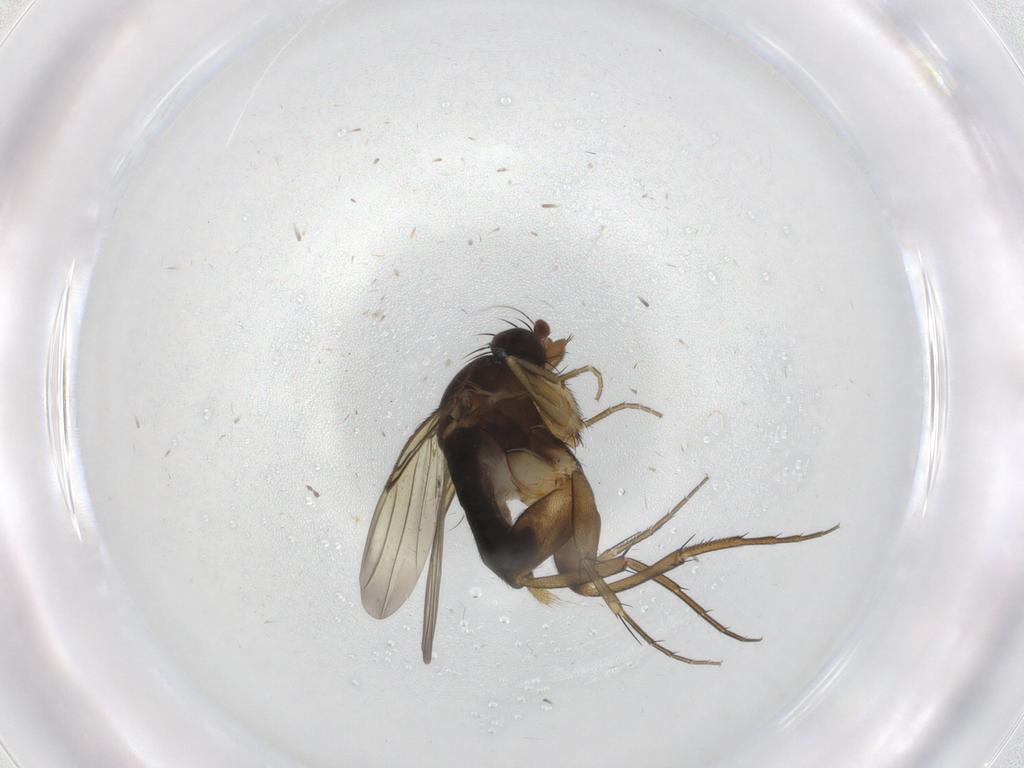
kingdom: Animalia
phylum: Arthropoda
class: Insecta
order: Diptera
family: Phoridae
